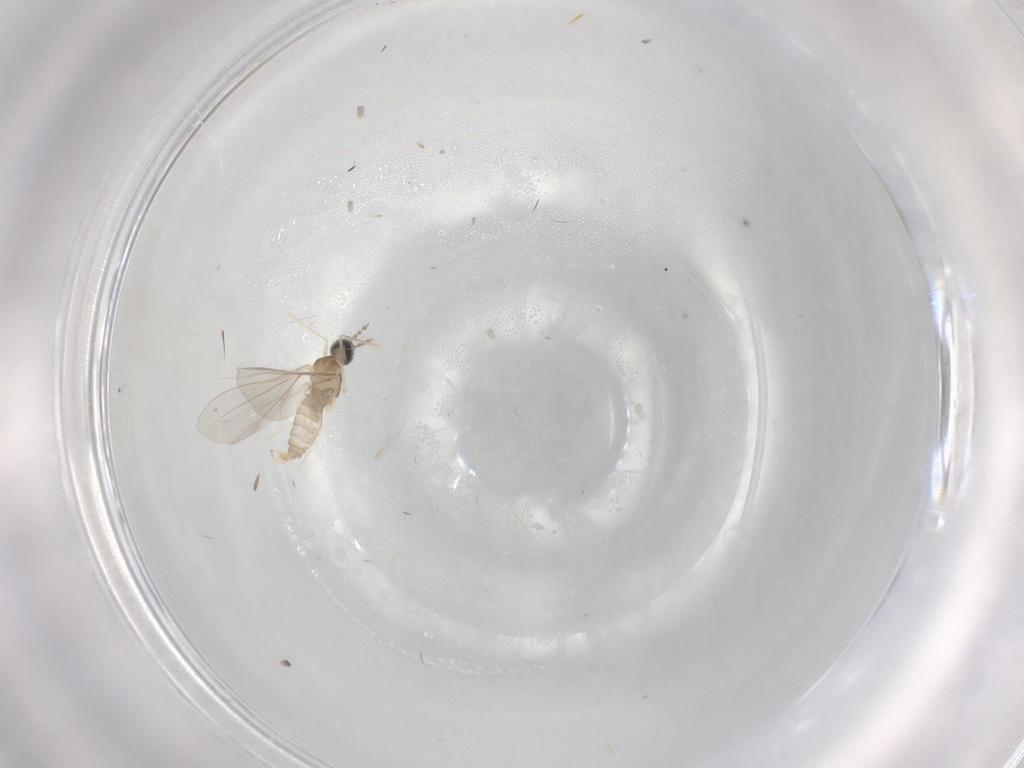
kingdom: Animalia
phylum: Arthropoda
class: Insecta
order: Diptera
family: Cecidomyiidae
